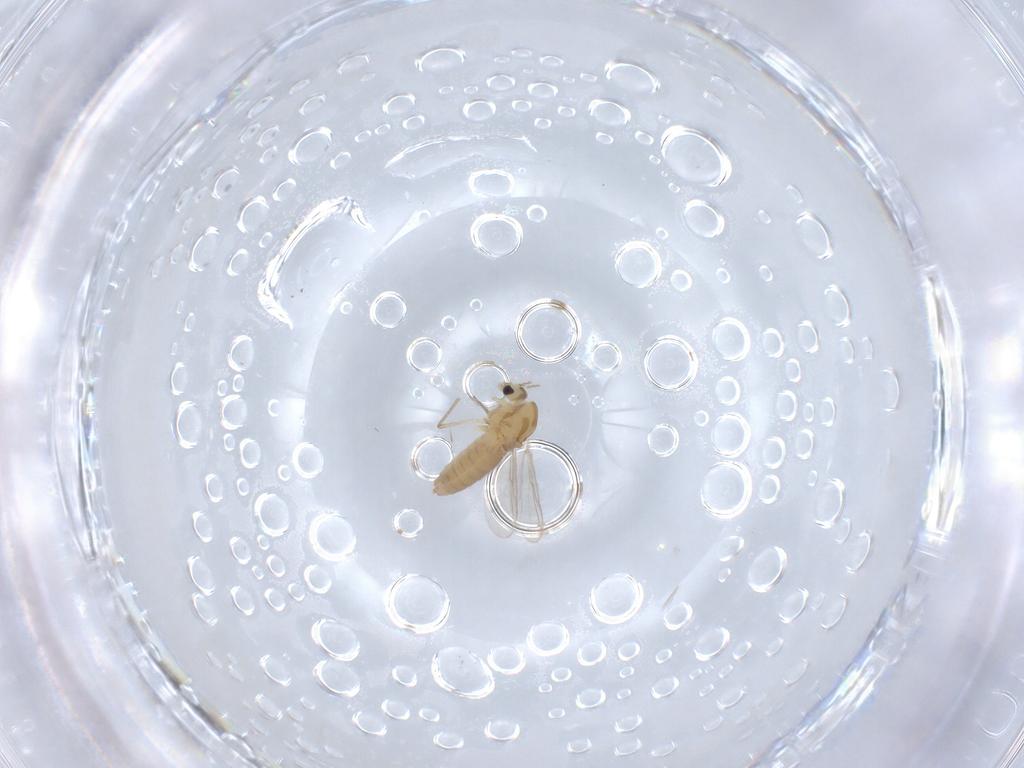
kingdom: Animalia
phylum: Arthropoda
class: Insecta
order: Diptera
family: Chironomidae
